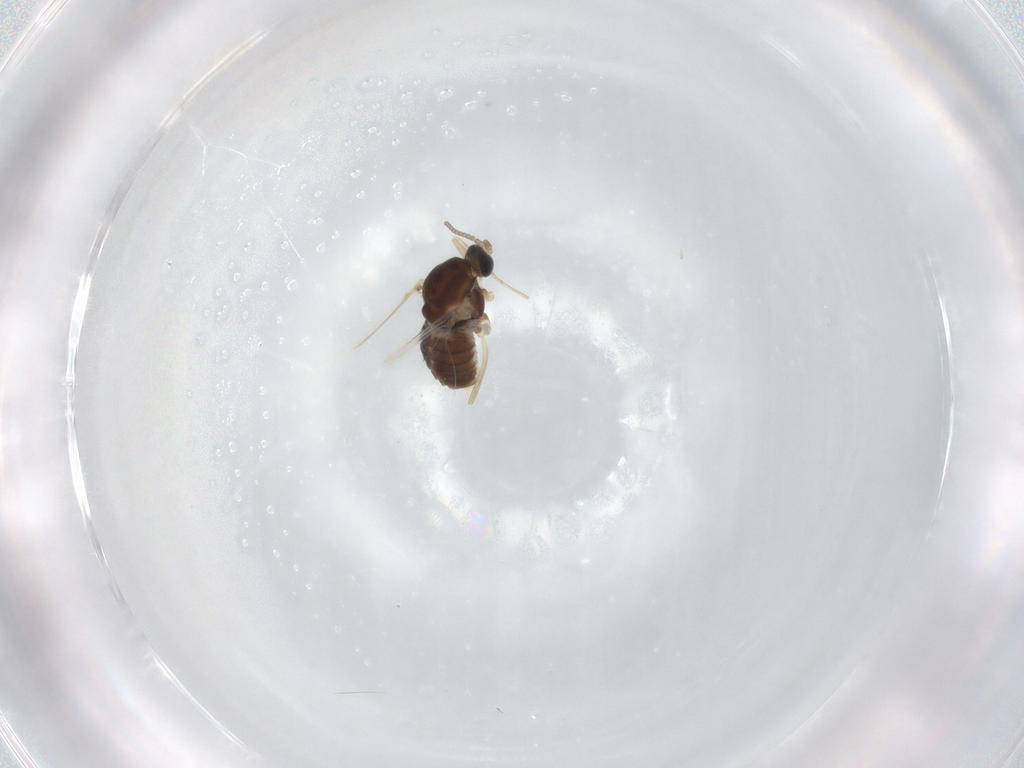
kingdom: Animalia
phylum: Arthropoda
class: Insecta
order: Diptera
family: Cecidomyiidae
